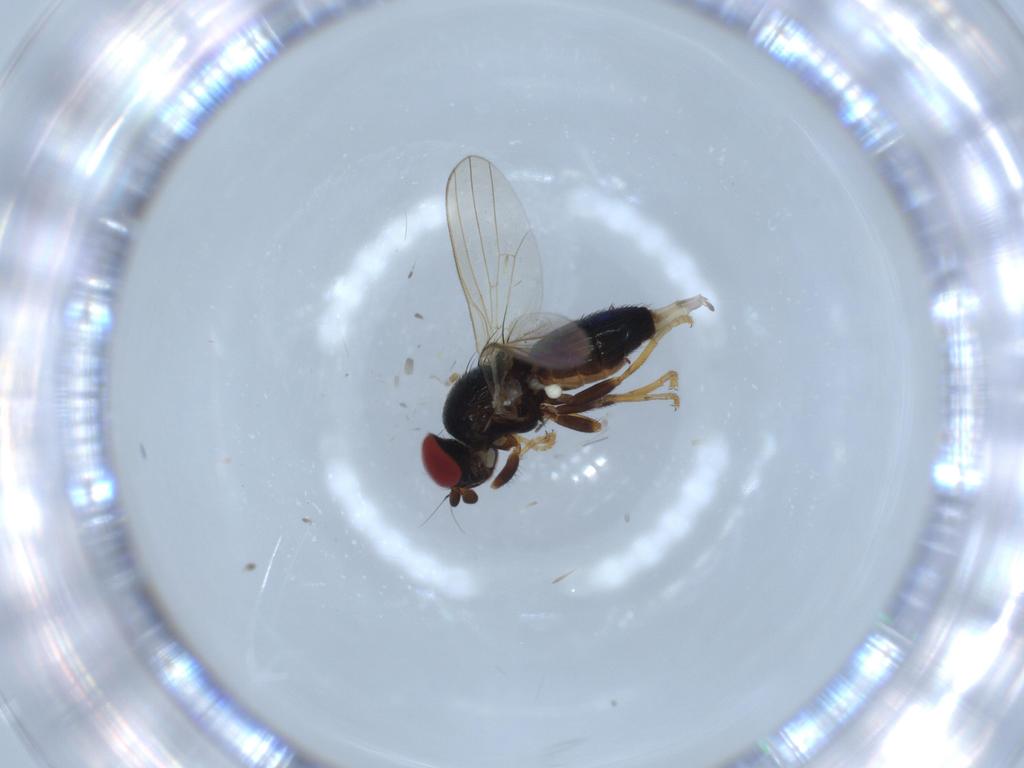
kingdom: Animalia
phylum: Arthropoda
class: Insecta
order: Diptera
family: Chamaemyiidae
